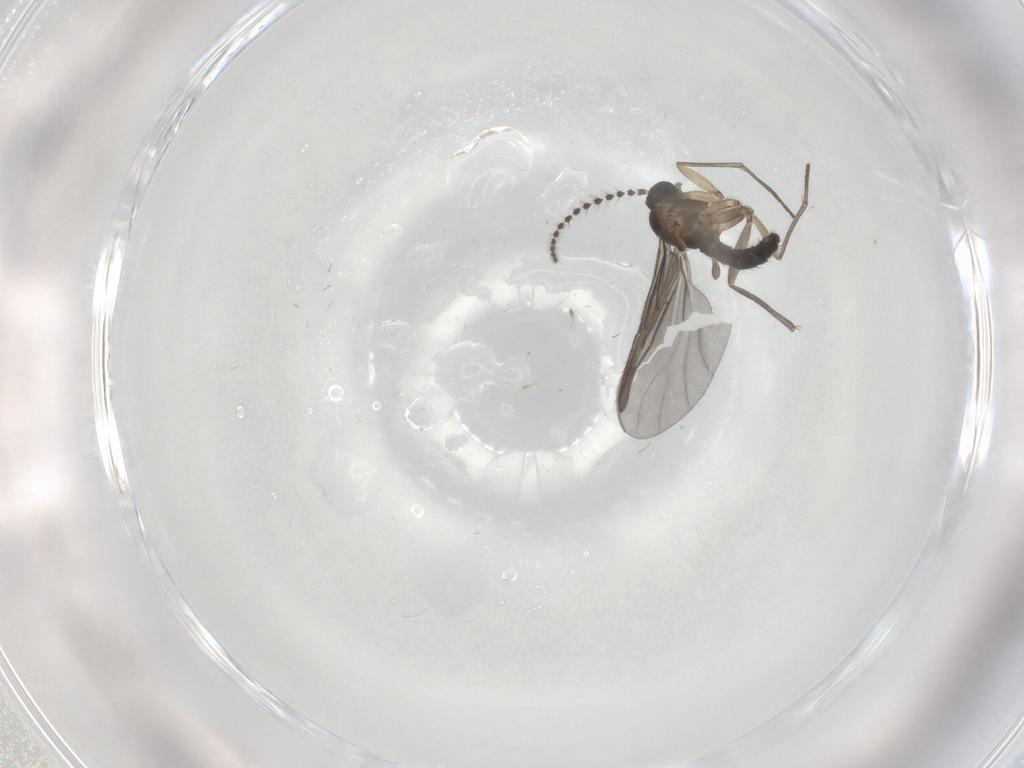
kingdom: Animalia
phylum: Arthropoda
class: Insecta
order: Diptera
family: Sciaridae
